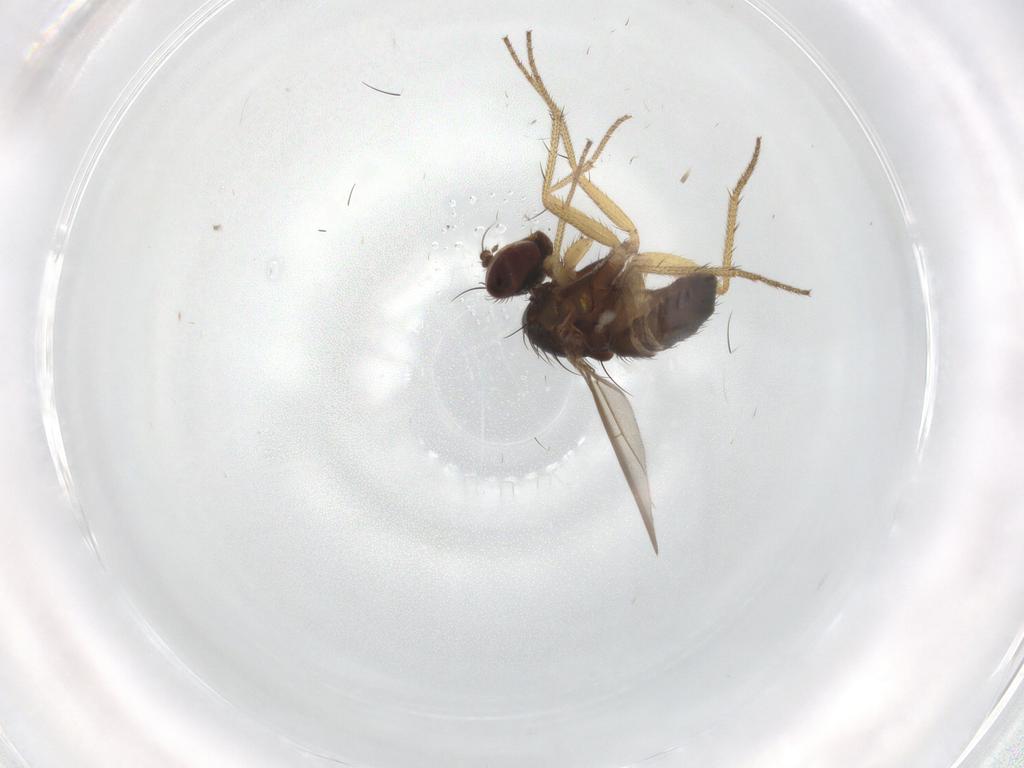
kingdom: Animalia
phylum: Arthropoda
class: Insecta
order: Diptera
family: Dolichopodidae
